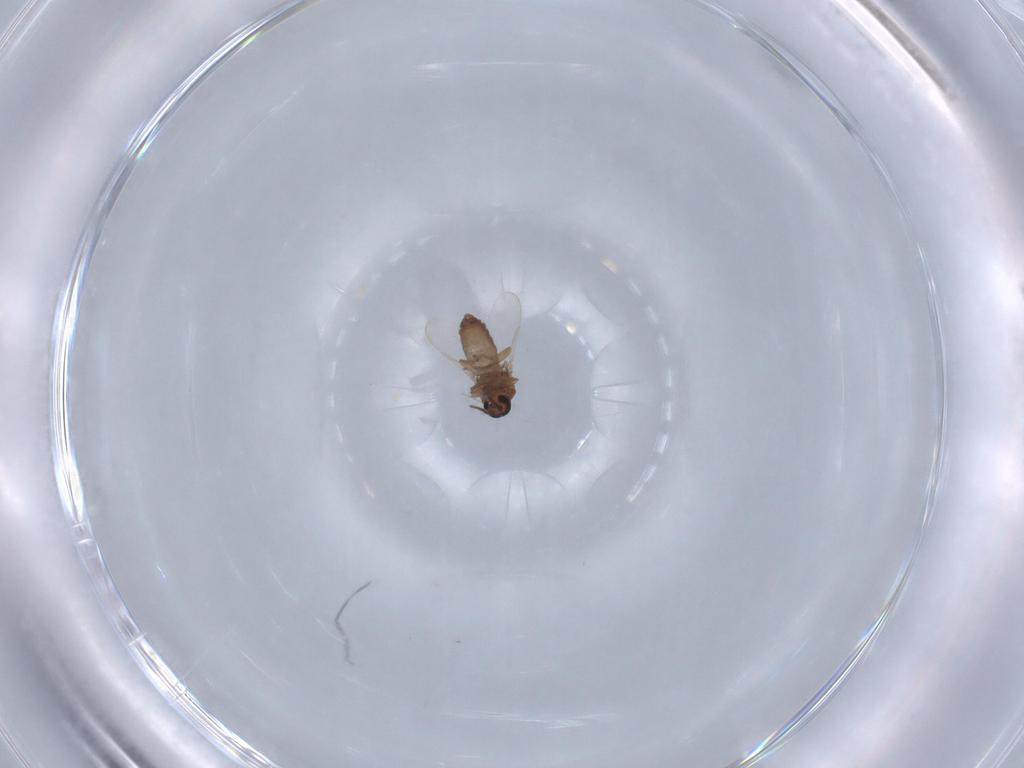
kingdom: Animalia
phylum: Arthropoda
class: Insecta
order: Diptera
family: Ceratopogonidae
